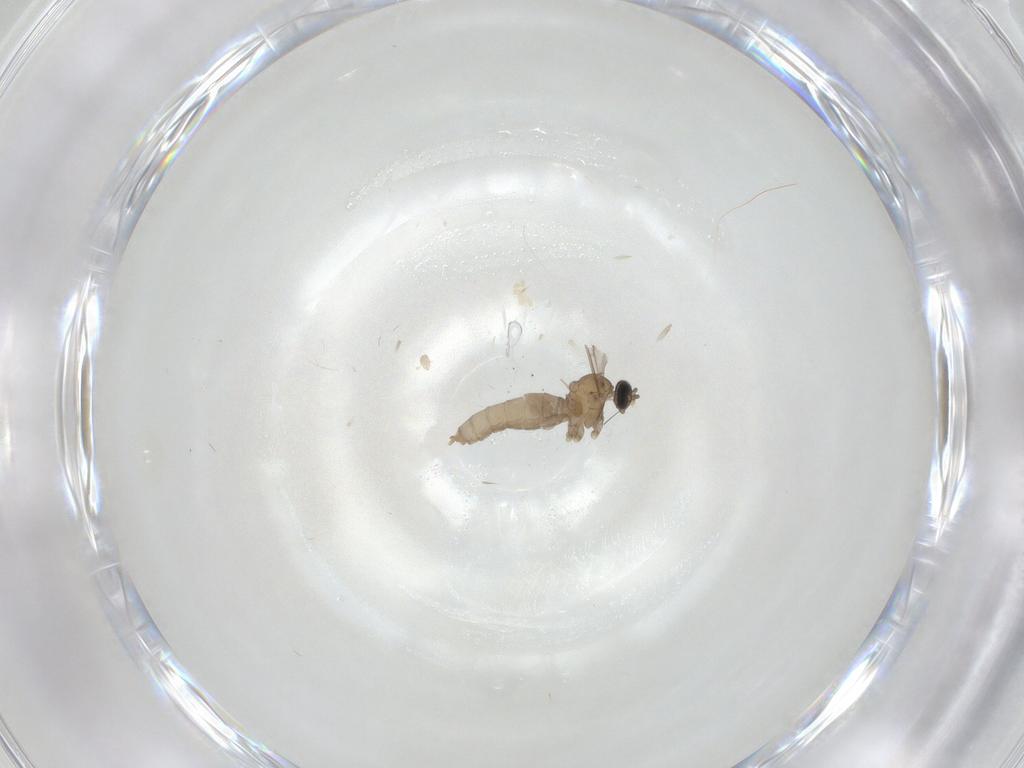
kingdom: Animalia
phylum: Arthropoda
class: Insecta
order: Diptera
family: Calliphoridae
